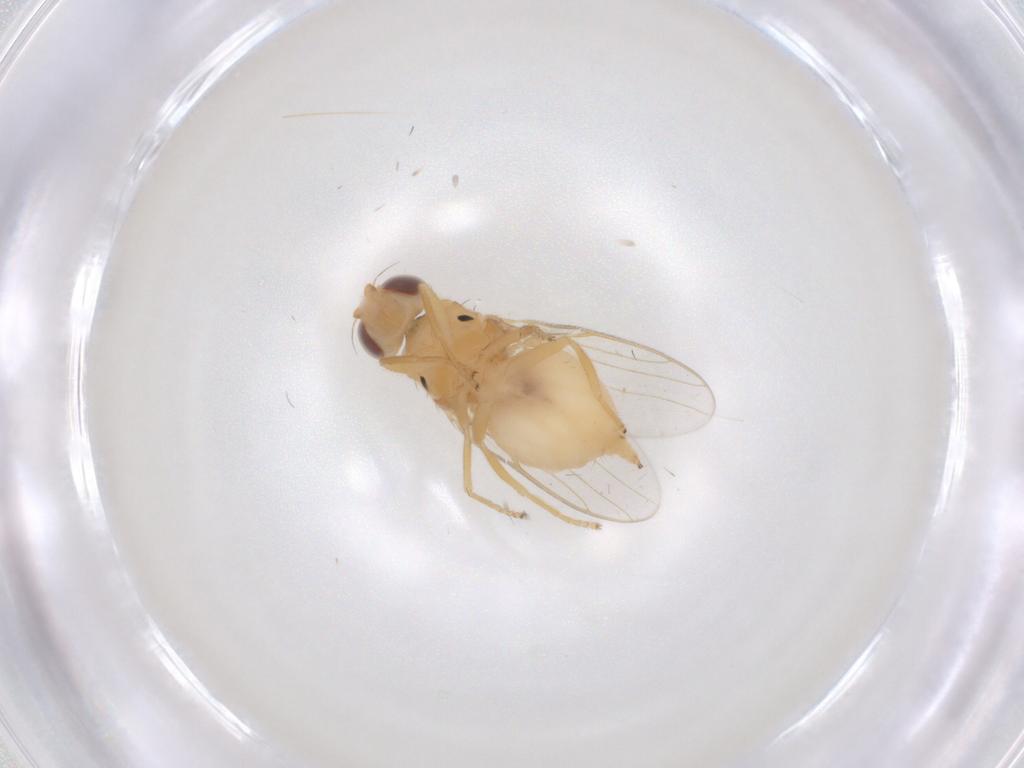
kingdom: Animalia
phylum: Arthropoda
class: Insecta
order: Diptera
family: Chloropidae
